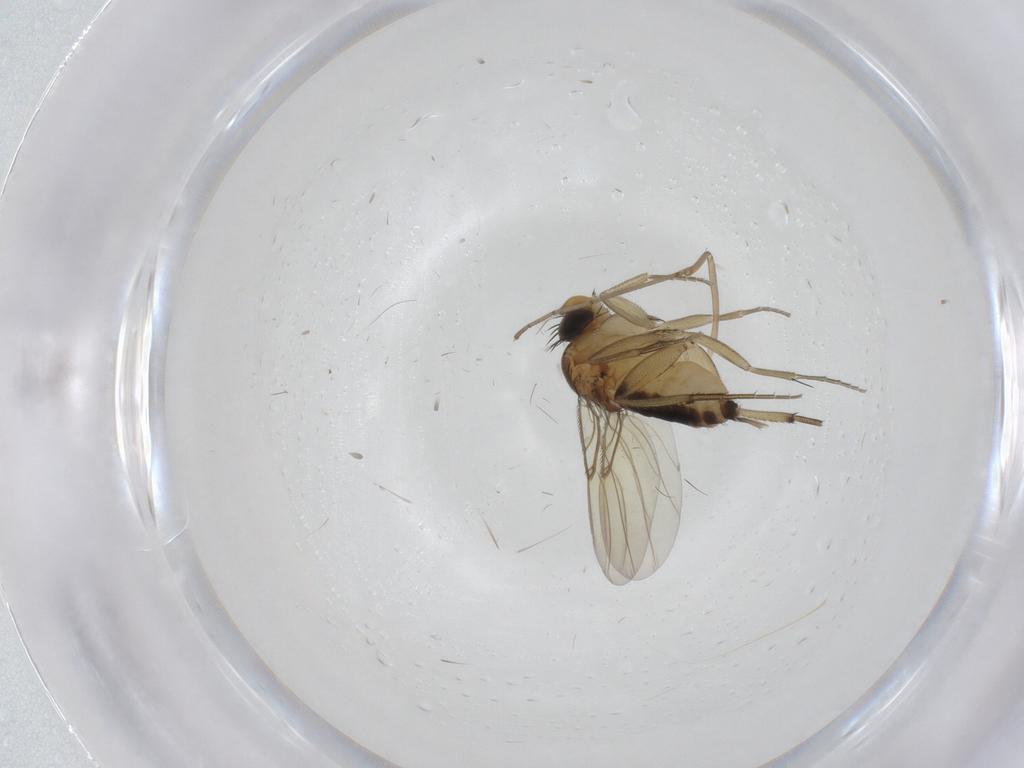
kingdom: Animalia
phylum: Arthropoda
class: Insecta
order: Diptera
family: Cecidomyiidae
